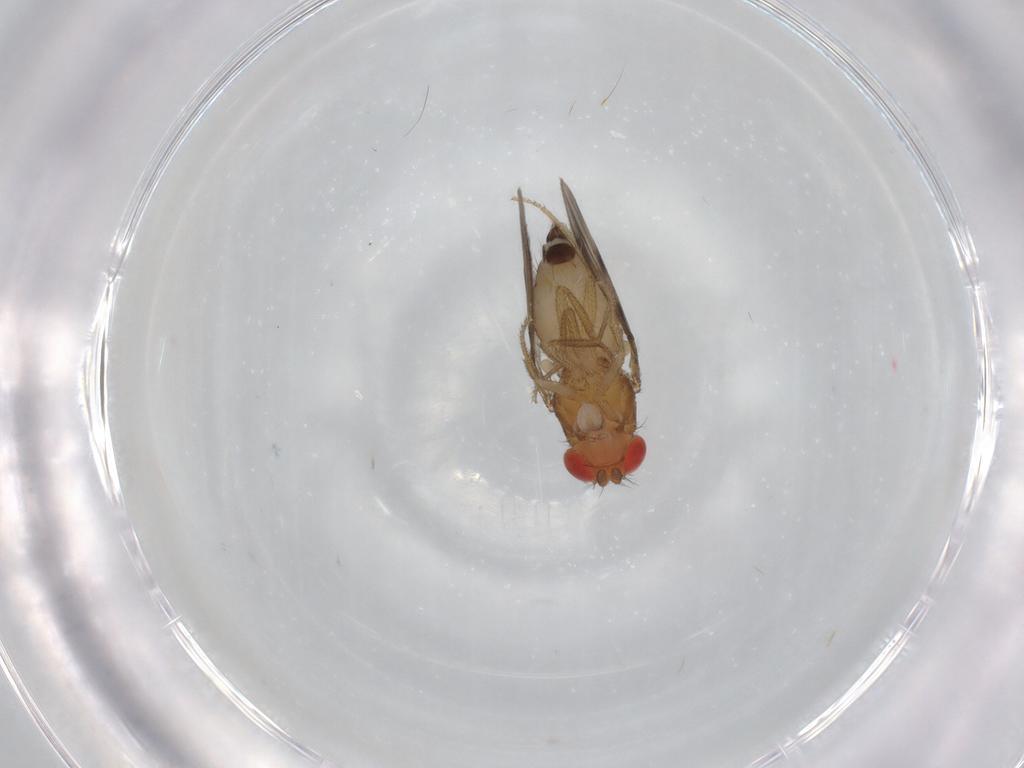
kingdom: Animalia
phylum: Arthropoda
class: Insecta
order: Diptera
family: Drosophilidae
